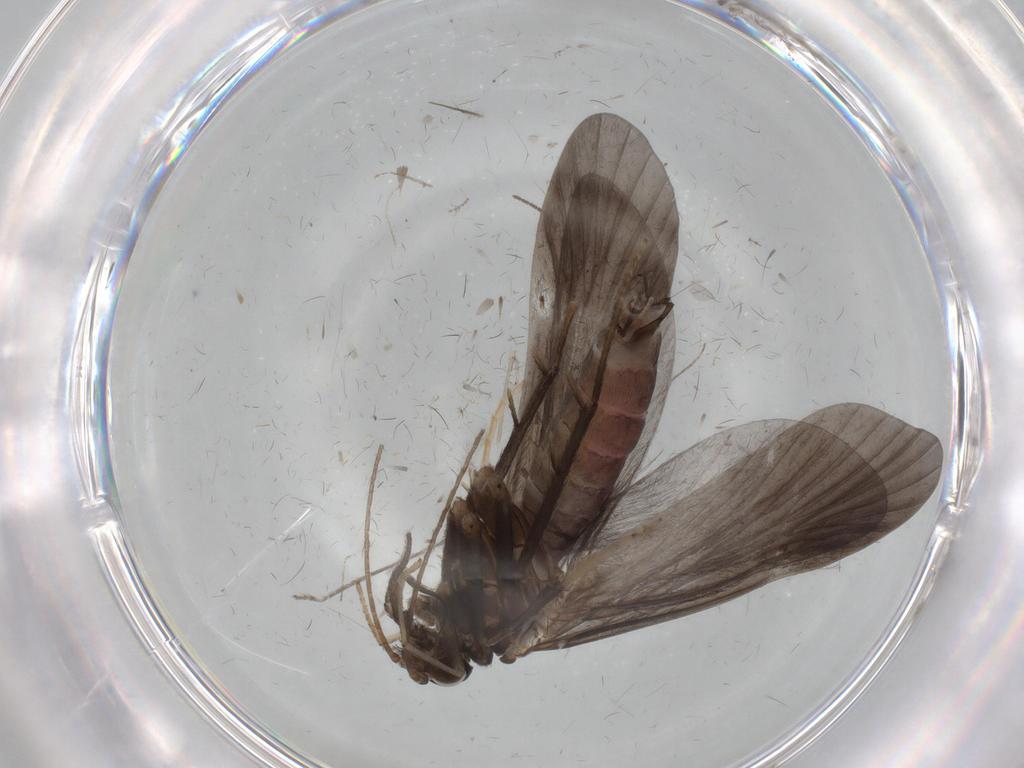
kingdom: Animalia
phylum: Arthropoda
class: Insecta
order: Trichoptera
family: Hydropsychidae
